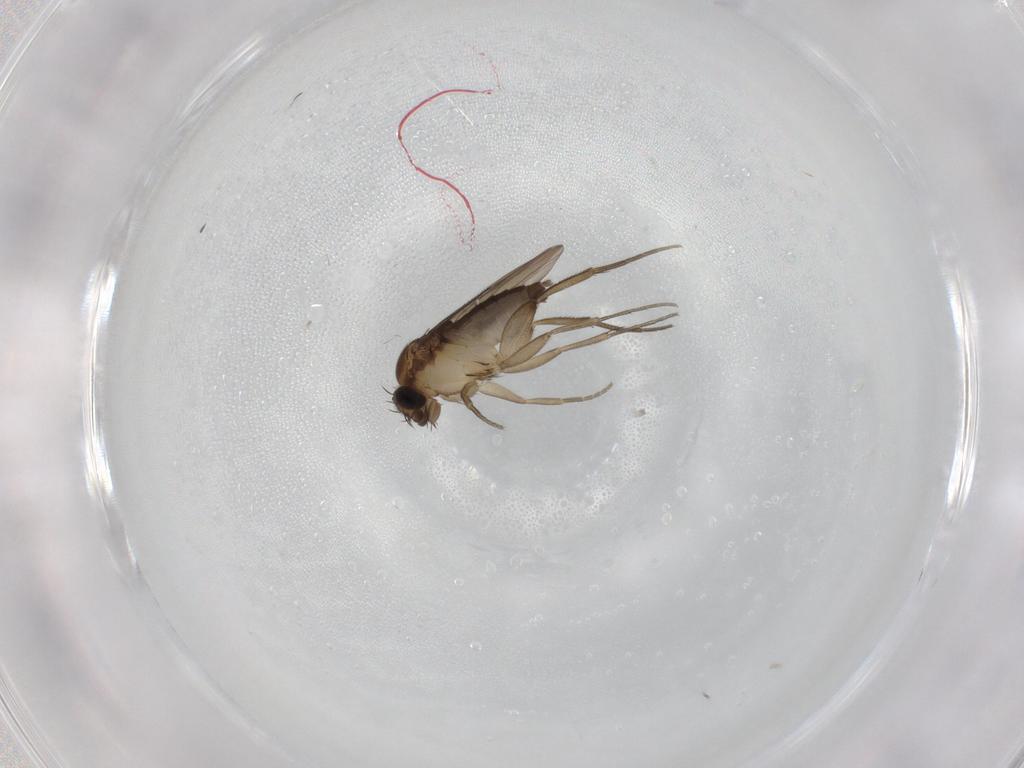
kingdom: Animalia
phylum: Arthropoda
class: Insecta
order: Diptera
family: Phoridae
